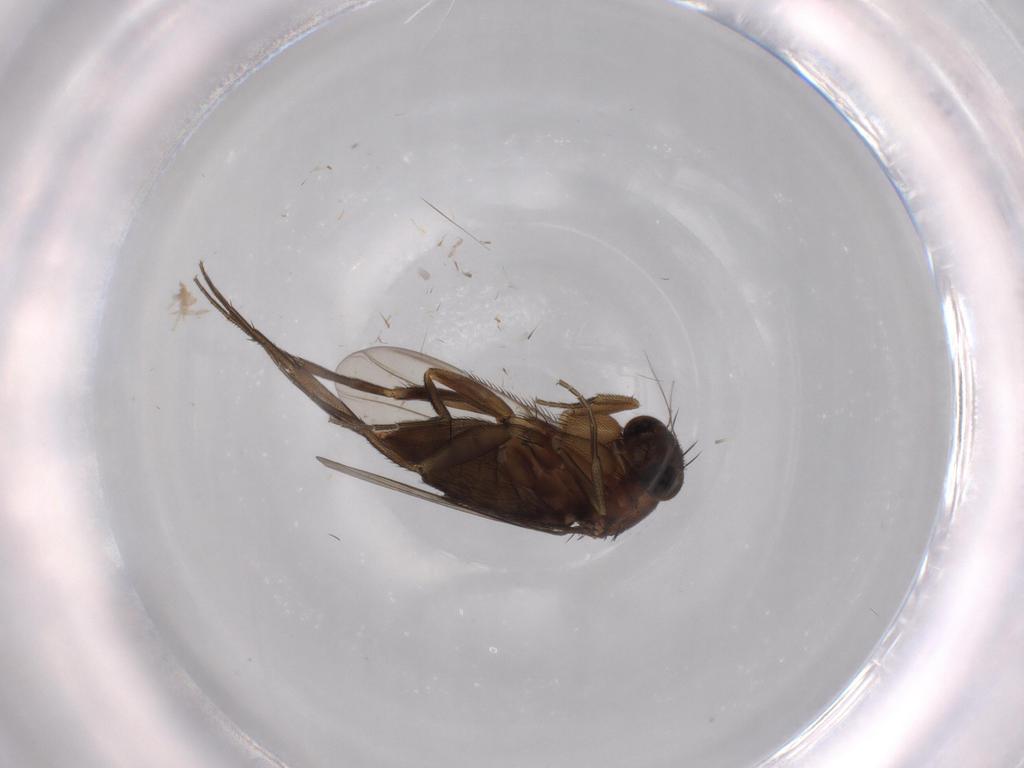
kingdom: Animalia
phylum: Arthropoda
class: Insecta
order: Diptera
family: Phoridae
